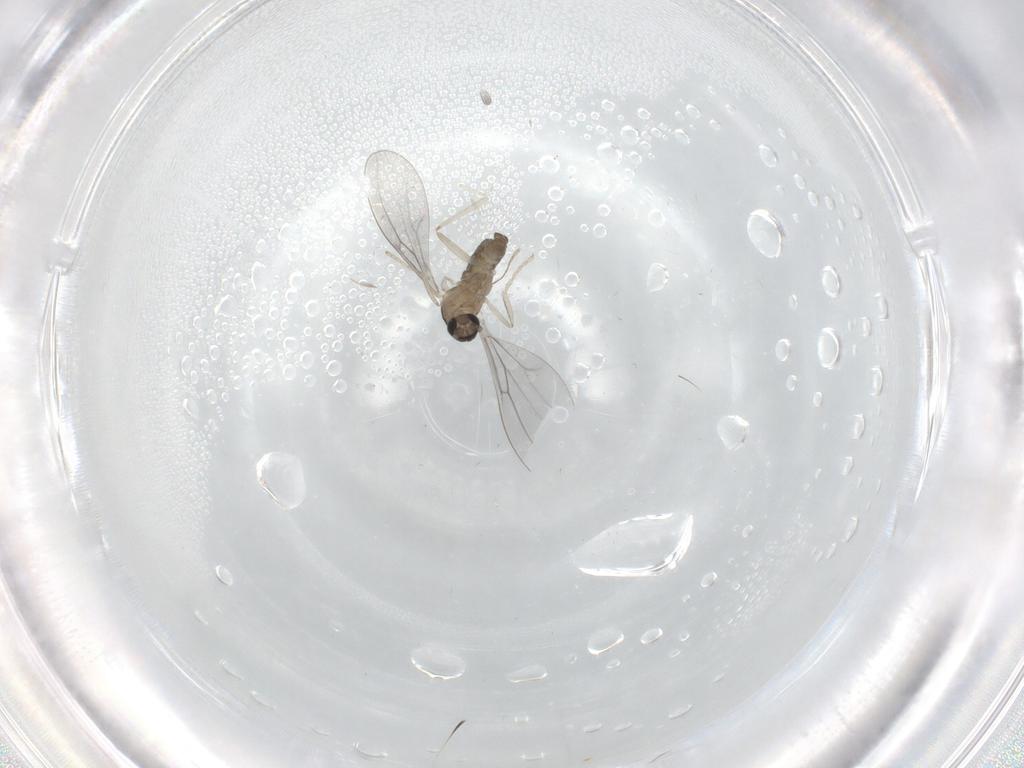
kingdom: Animalia
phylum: Arthropoda
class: Insecta
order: Diptera
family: Cecidomyiidae
